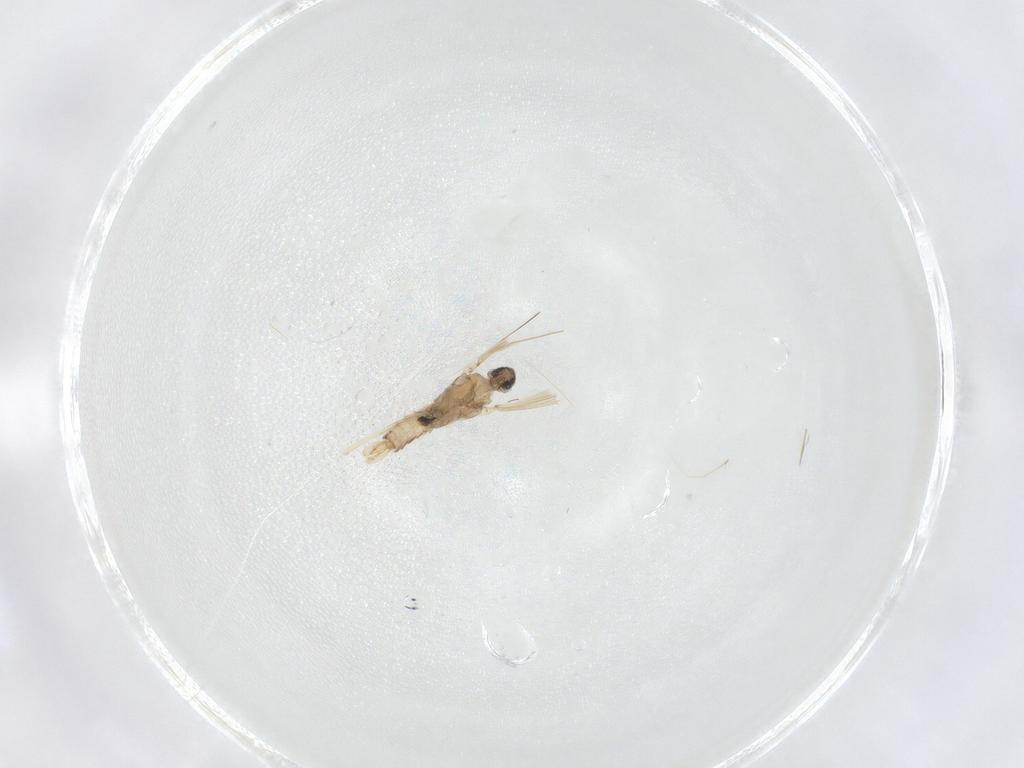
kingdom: Animalia
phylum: Arthropoda
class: Insecta
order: Diptera
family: Cecidomyiidae
